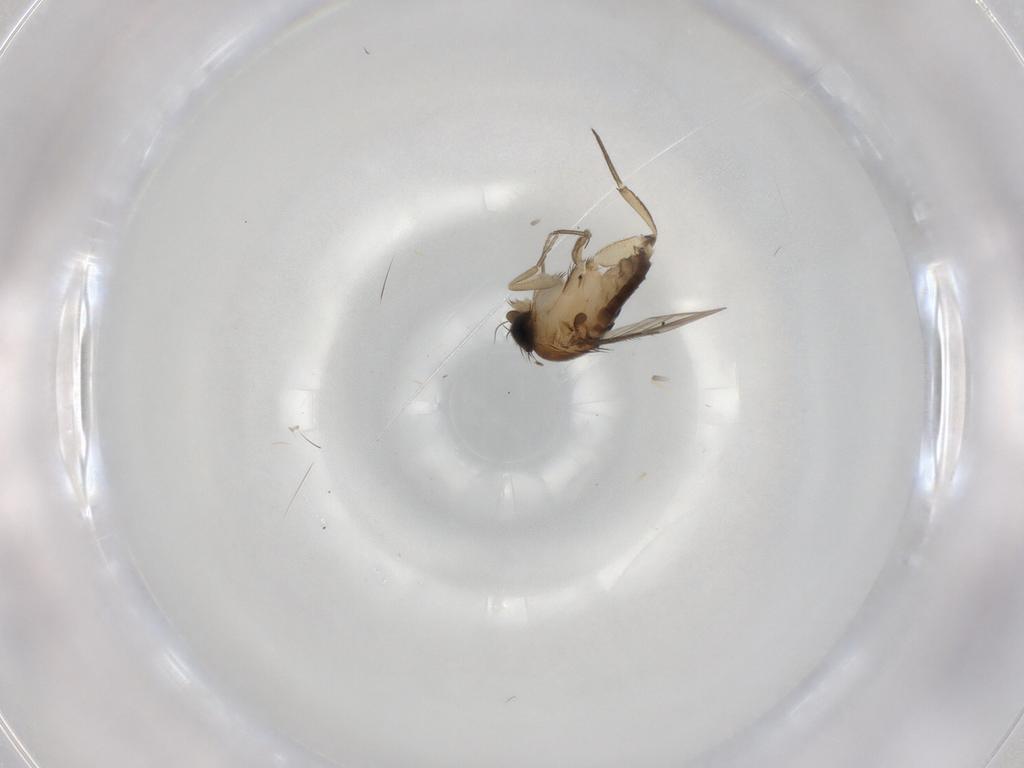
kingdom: Animalia
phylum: Arthropoda
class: Insecta
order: Diptera
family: Phoridae
